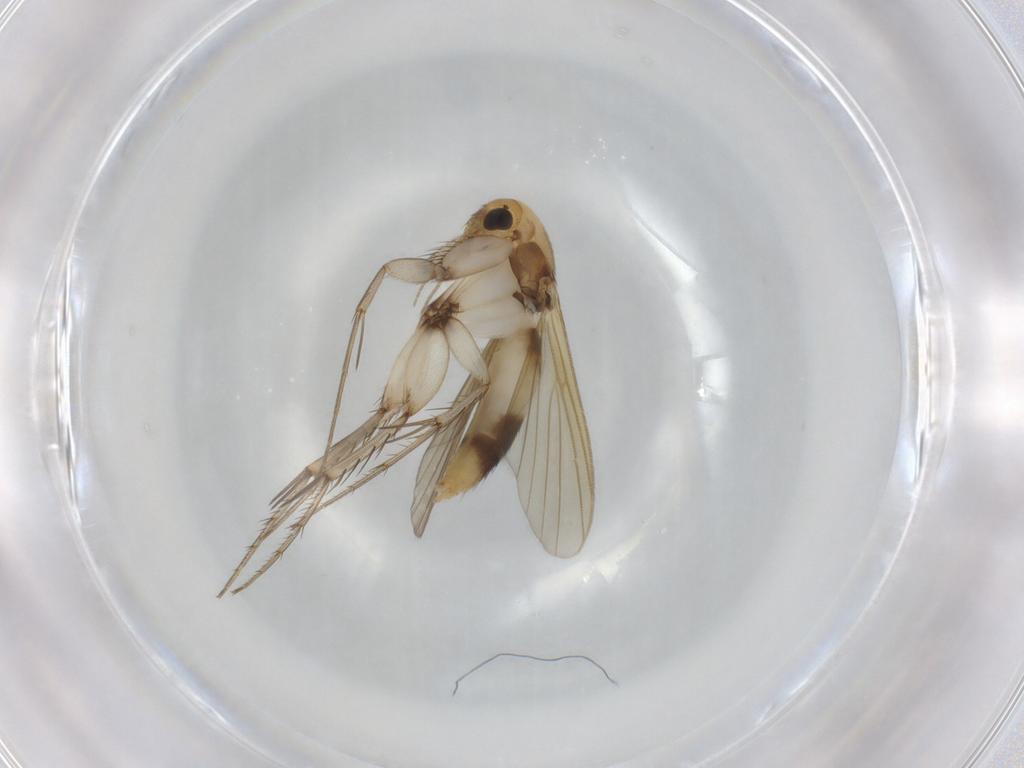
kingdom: Animalia
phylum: Arthropoda
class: Insecta
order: Diptera
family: Mycetophilidae
